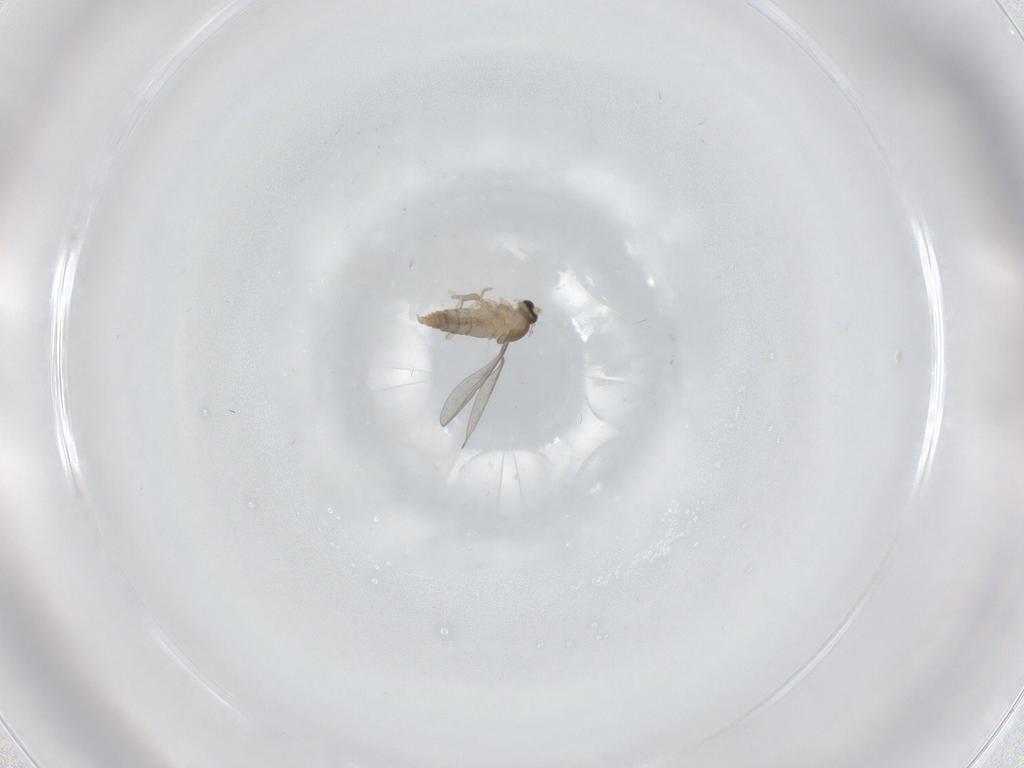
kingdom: Animalia
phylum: Arthropoda
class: Insecta
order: Diptera
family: Cecidomyiidae
